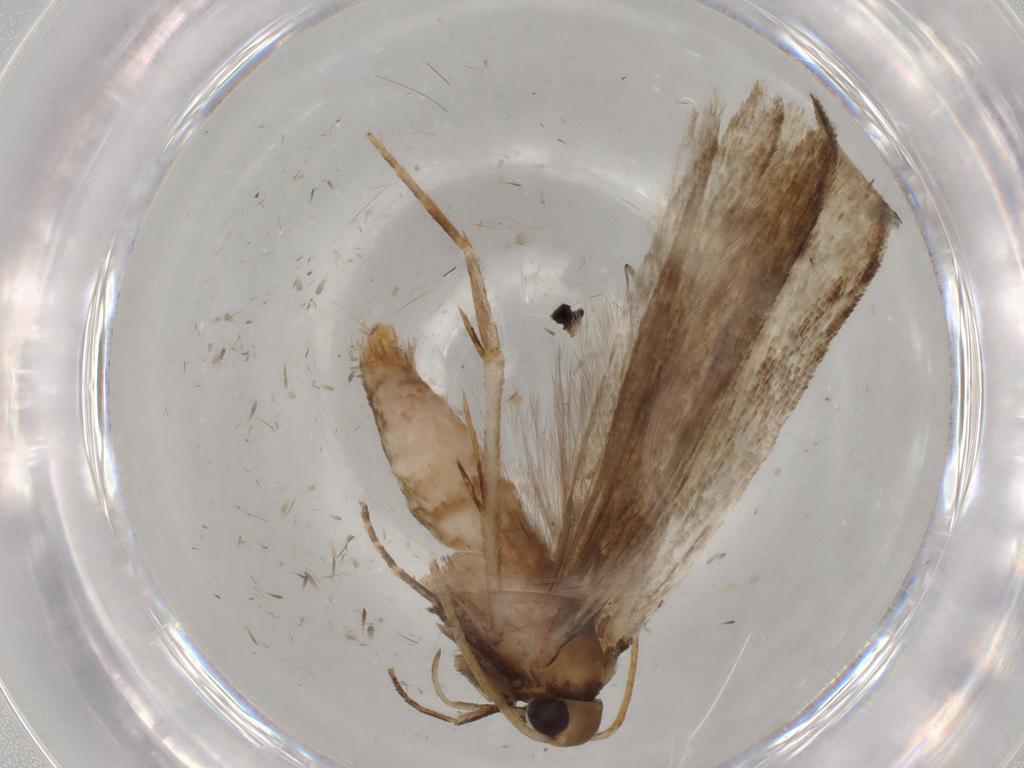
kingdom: Animalia
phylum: Arthropoda
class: Insecta
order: Lepidoptera
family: Gelechiidae
